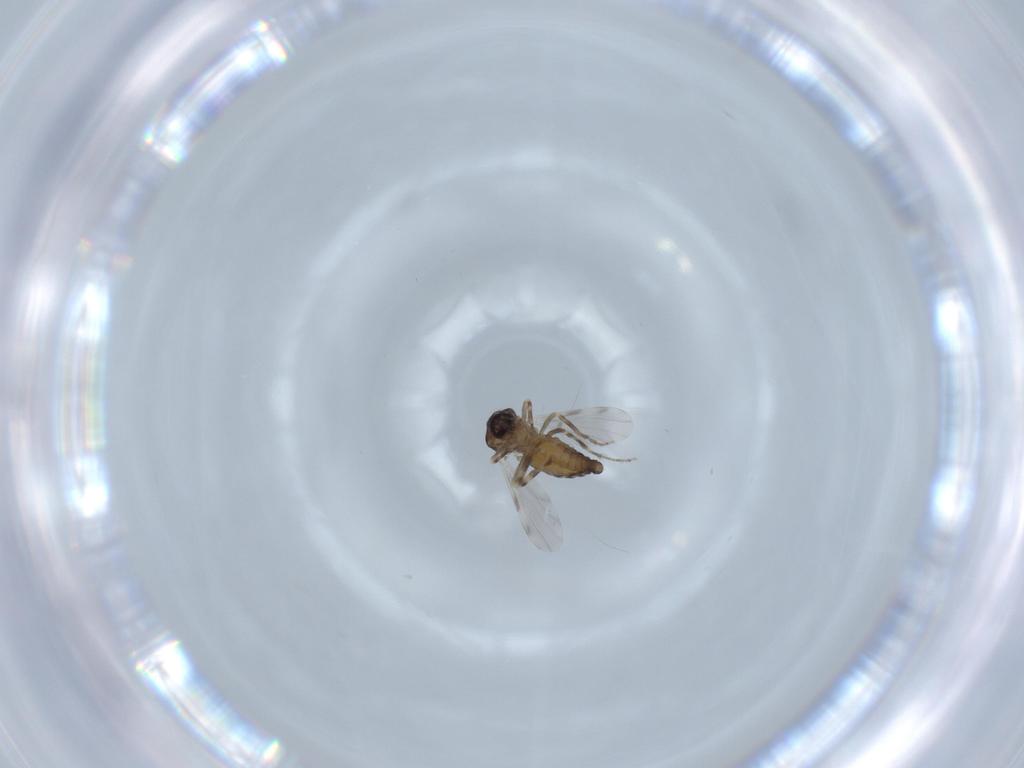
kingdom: Animalia
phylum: Arthropoda
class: Insecta
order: Diptera
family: Ceratopogonidae
